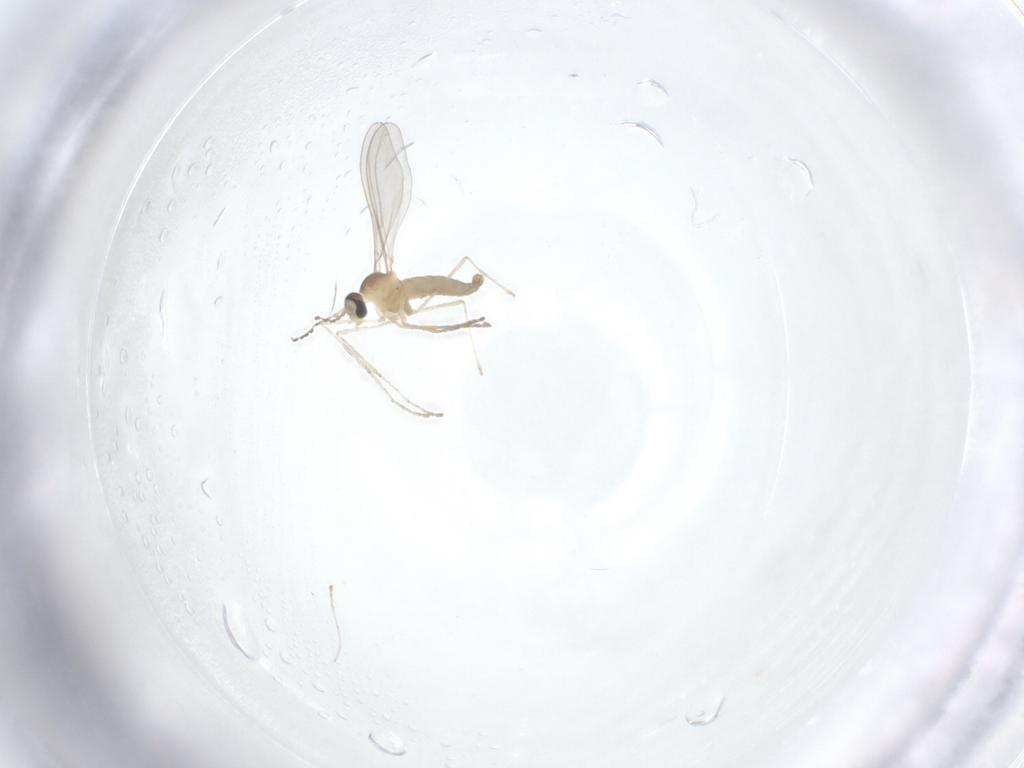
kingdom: Animalia
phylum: Arthropoda
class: Insecta
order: Diptera
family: Cecidomyiidae
